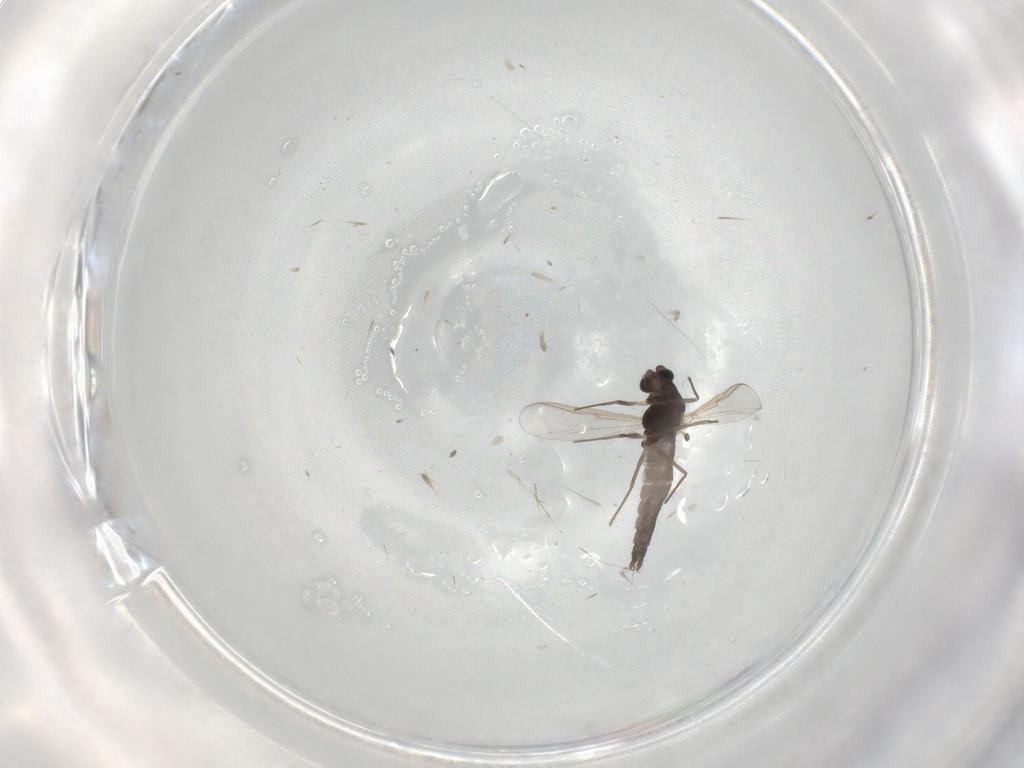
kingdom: Animalia
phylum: Arthropoda
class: Insecta
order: Diptera
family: Chironomidae
